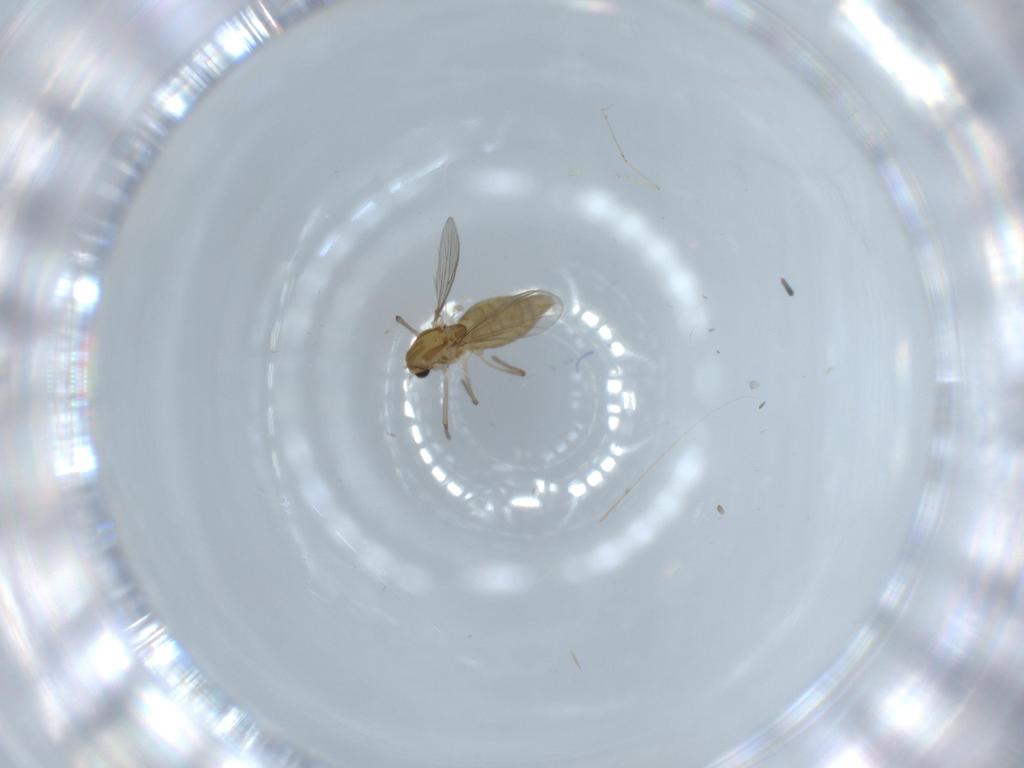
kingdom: Animalia
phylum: Arthropoda
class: Insecta
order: Diptera
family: Chironomidae
